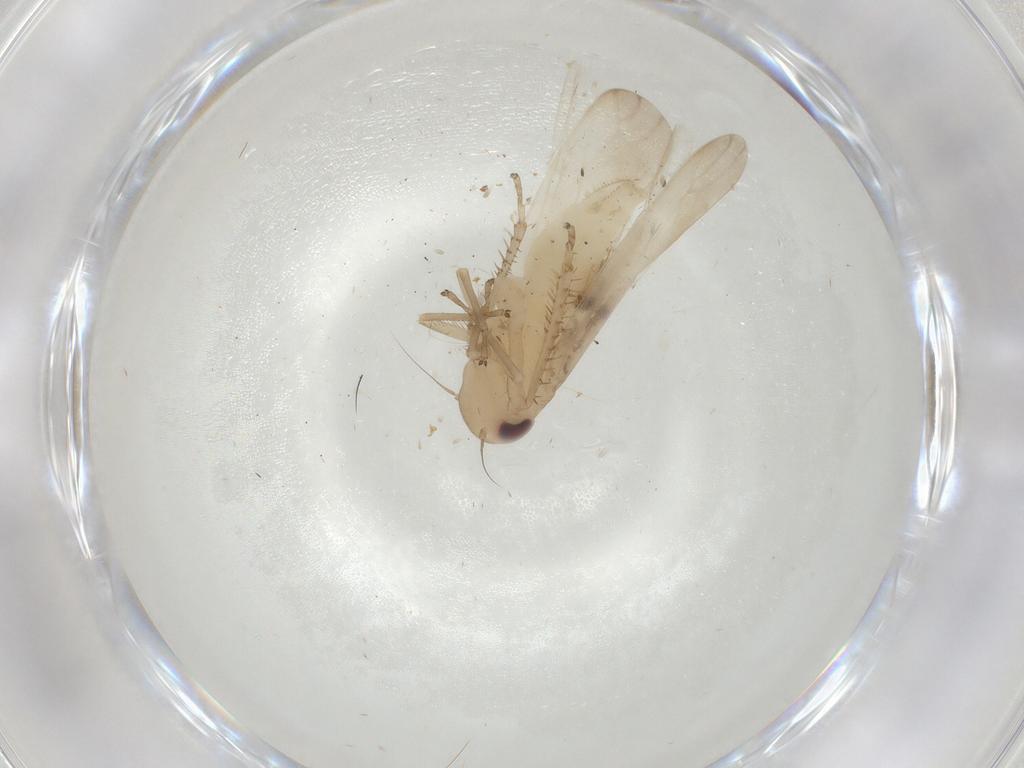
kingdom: Animalia
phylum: Arthropoda
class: Insecta
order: Hemiptera
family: Cicadellidae
